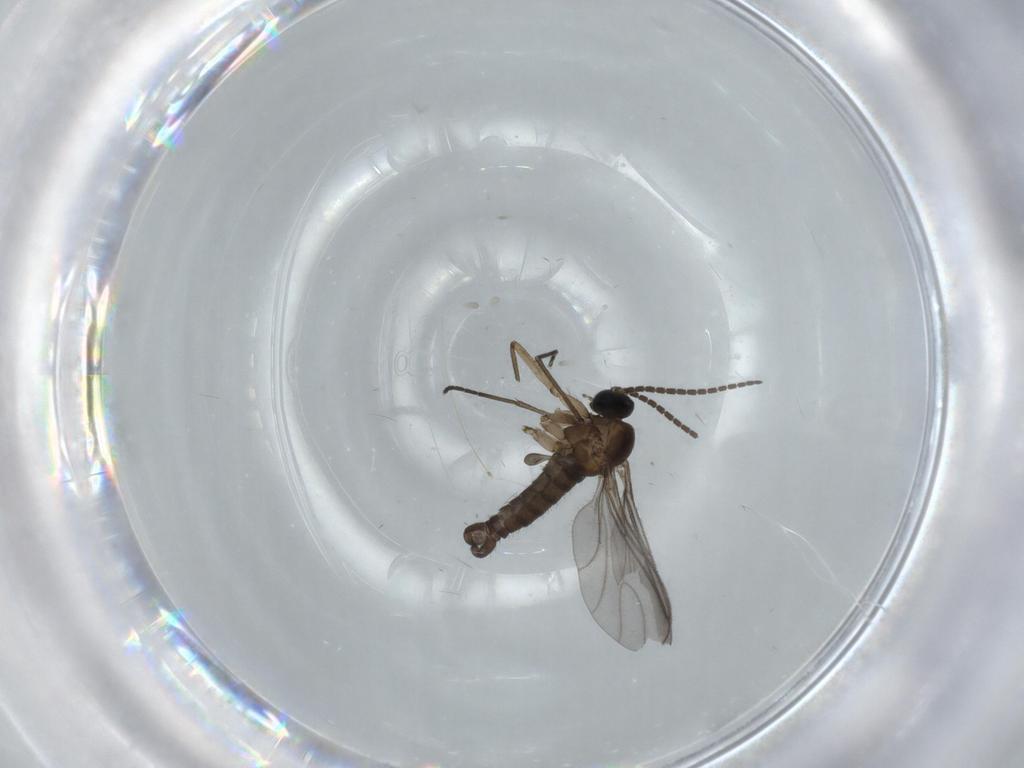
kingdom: Animalia
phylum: Arthropoda
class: Insecta
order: Diptera
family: Sciaridae
